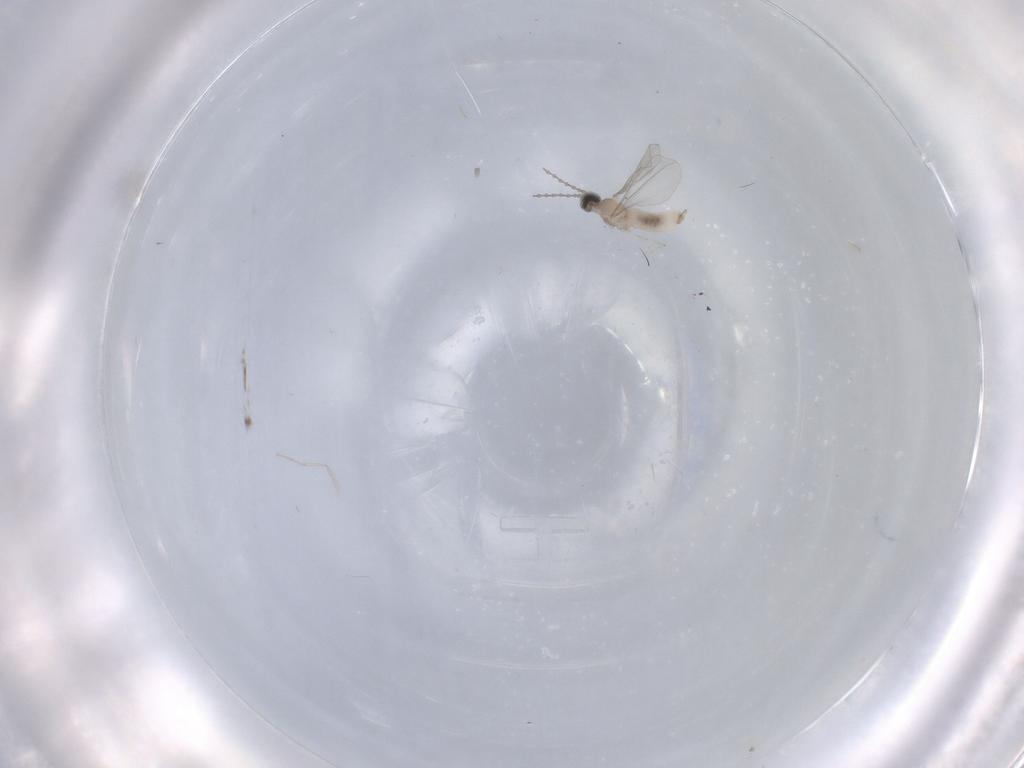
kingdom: Animalia
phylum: Arthropoda
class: Insecta
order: Diptera
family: Cecidomyiidae
